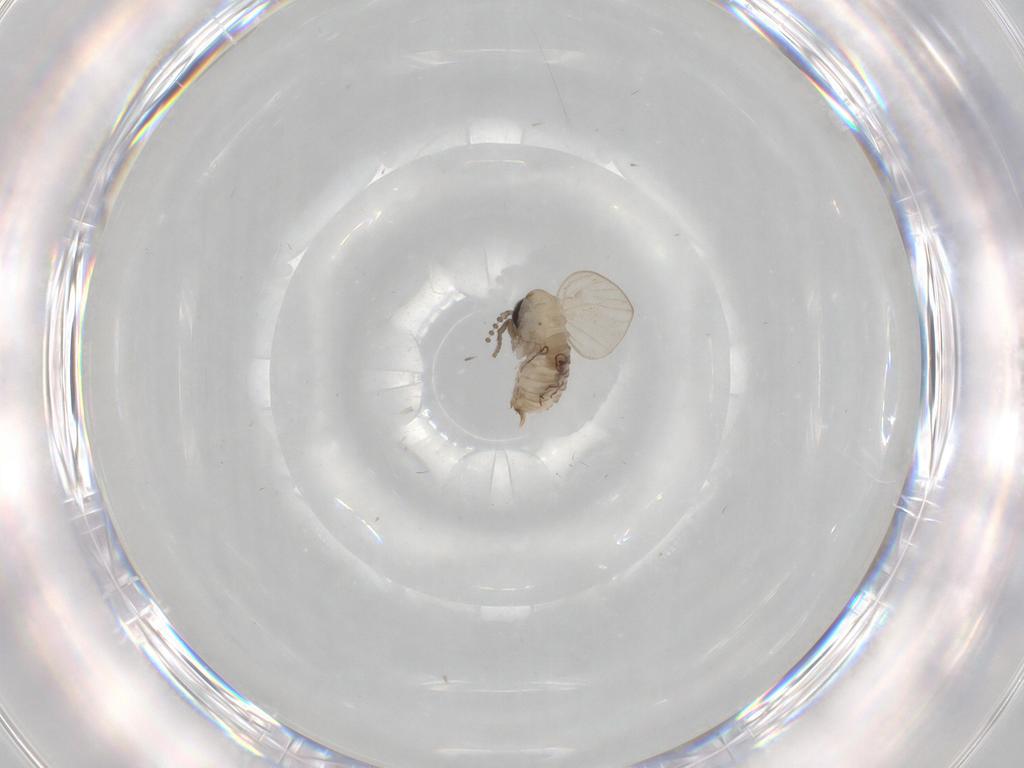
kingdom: Animalia
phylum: Arthropoda
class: Insecta
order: Diptera
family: Psychodidae
